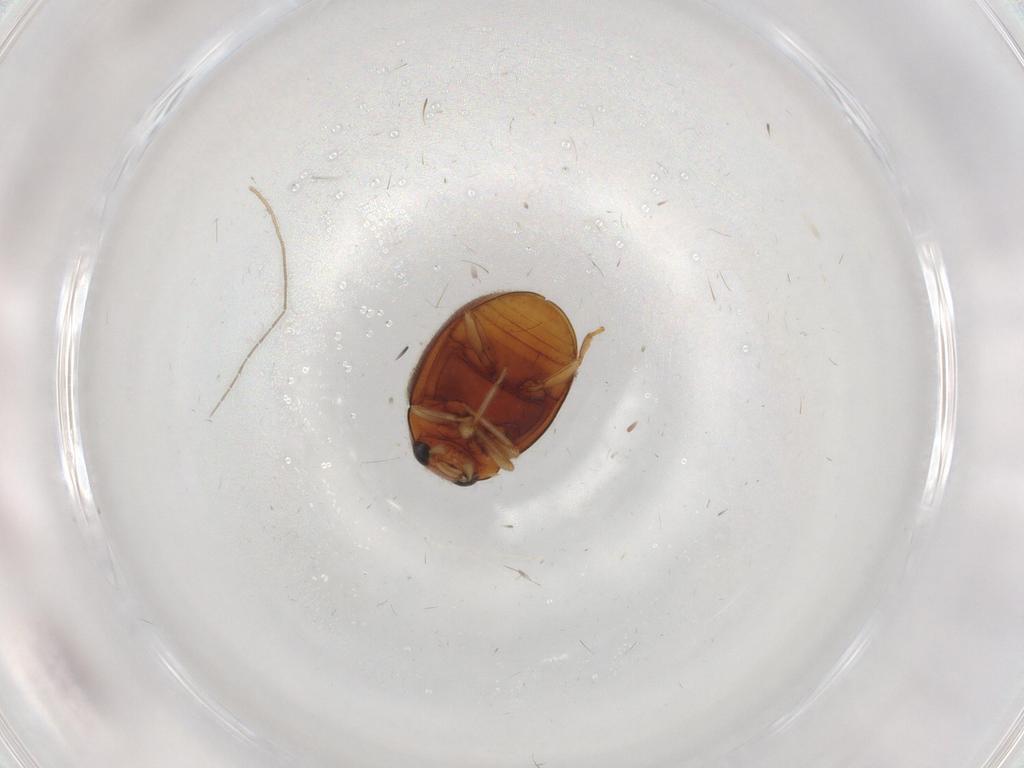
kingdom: Animalia
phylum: Arthropoda
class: Insecta
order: Coleoptera
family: Coccinellidae
